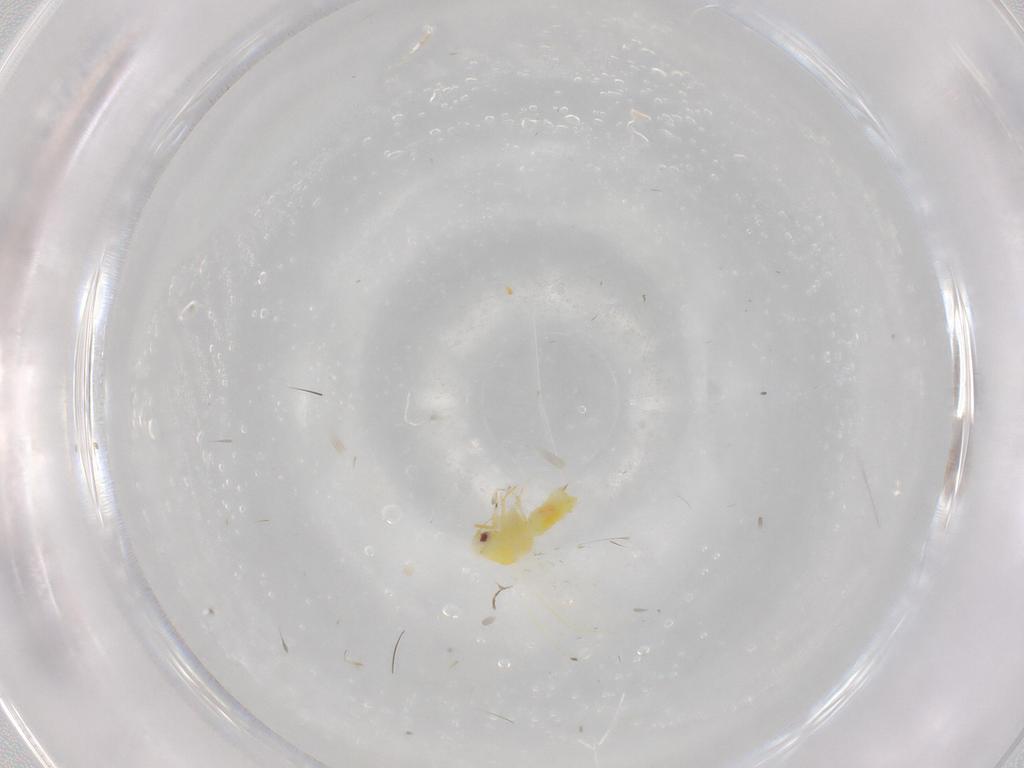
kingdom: Animalia
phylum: Arthropoda
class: Insecta
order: Hemiptera
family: Aleyrodidae
